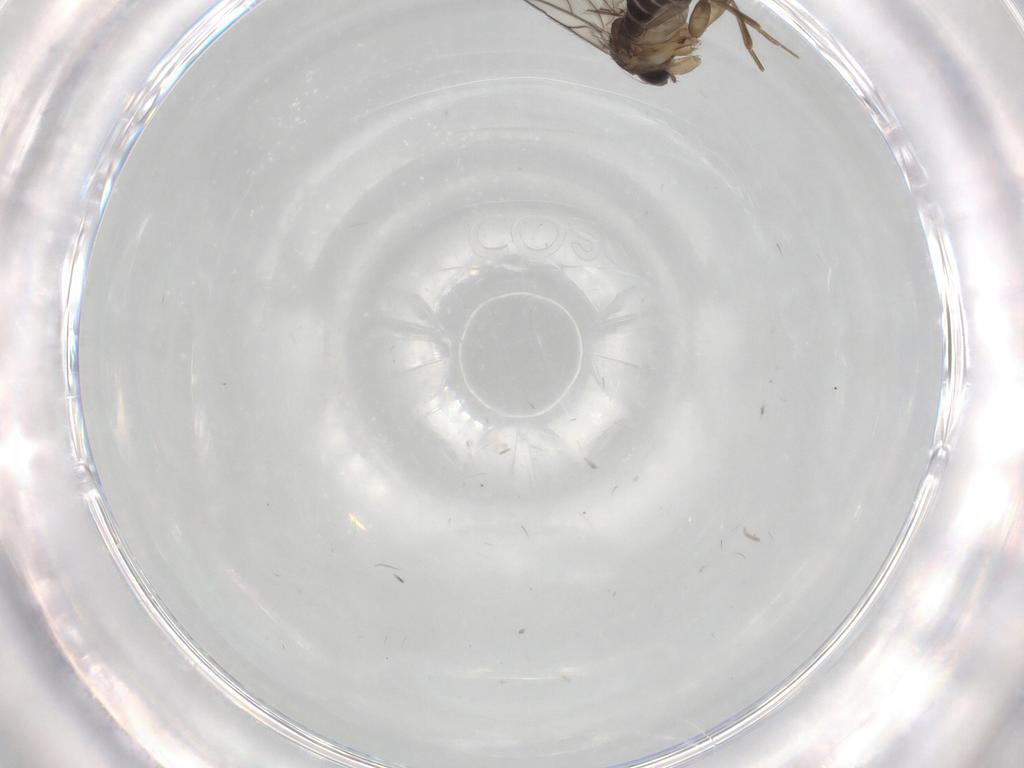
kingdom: Animalia
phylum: Arthropoda
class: Insecta
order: Diptera
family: Phoridae
